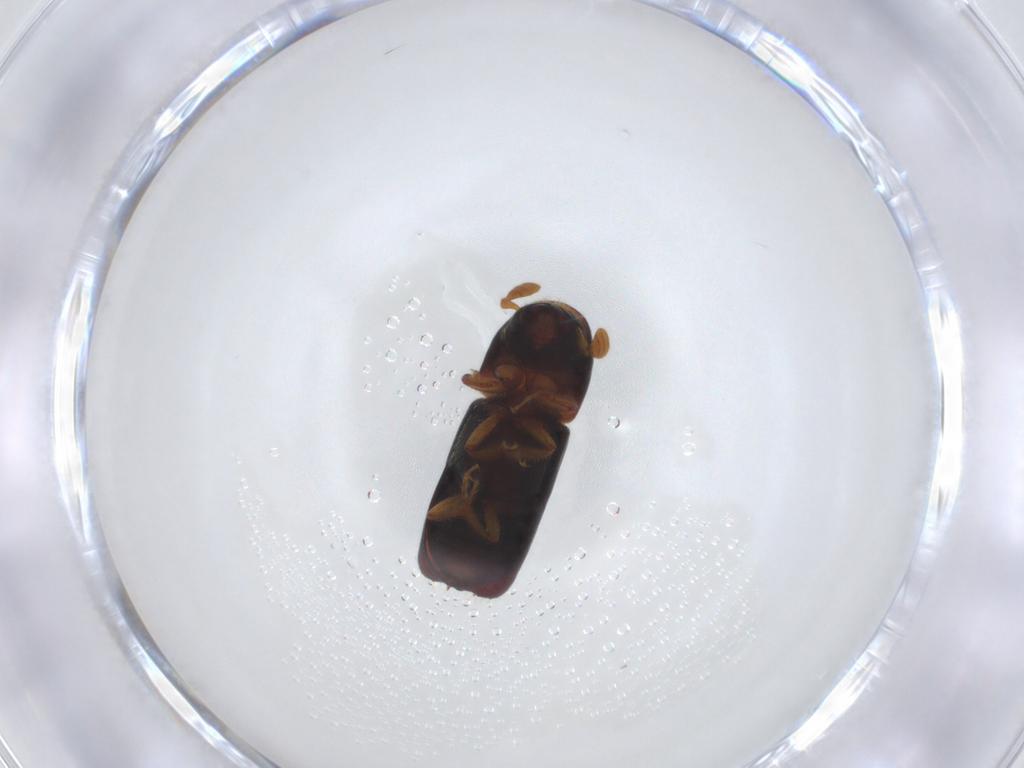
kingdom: Animalia
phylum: Arthropoda
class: Insecta
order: Coleoptera
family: Curculionidae
